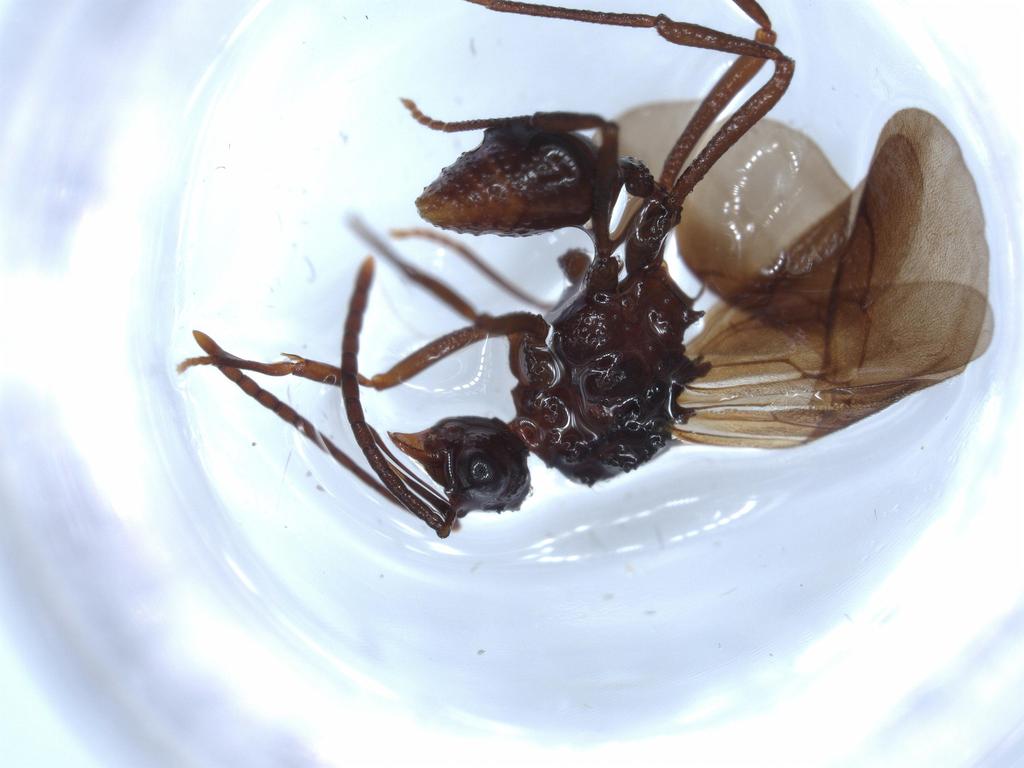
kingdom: Animalia
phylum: Arthropoda
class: Insecta
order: Hymenoptera
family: Formicidae
